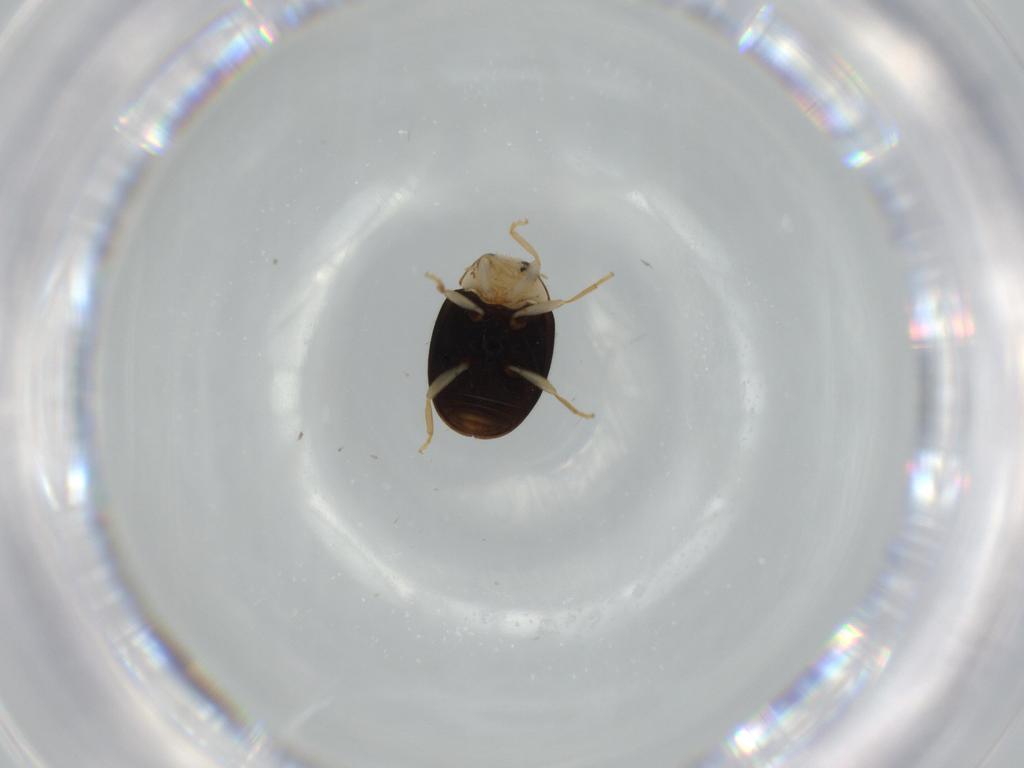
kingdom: Animalia
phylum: Arthropoda
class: Insecta
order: Coleoptera
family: Coccinellidae
